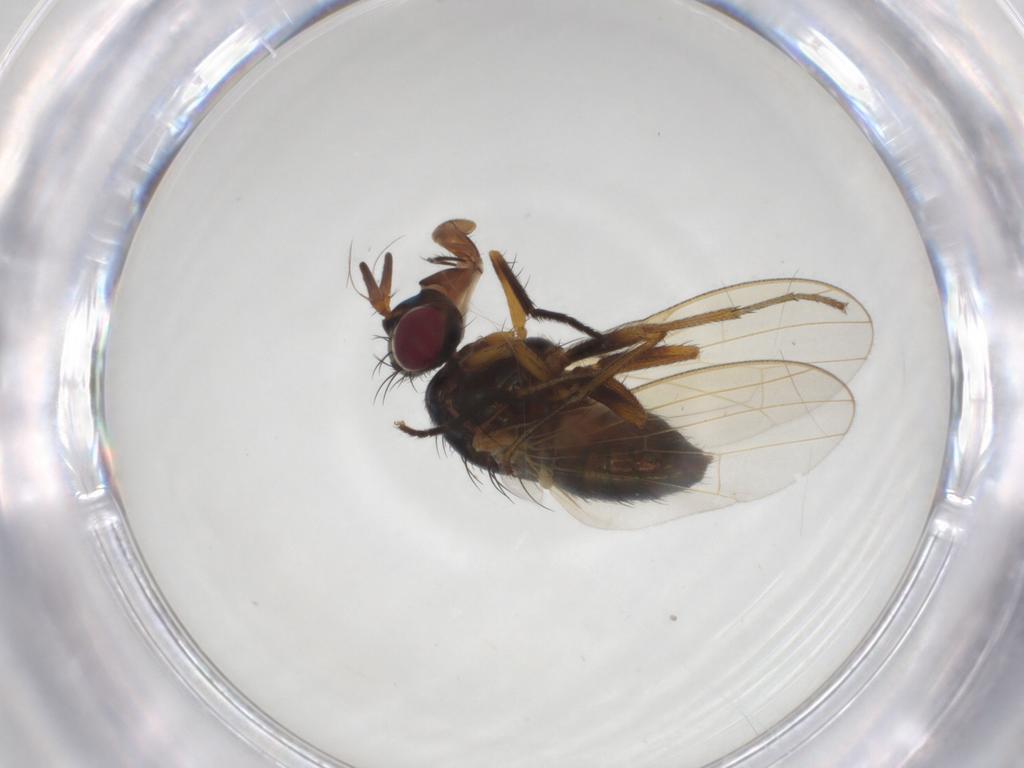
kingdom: Animalia
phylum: Arthropoda
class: Insecta
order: Diptera
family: Lauxaniidae
